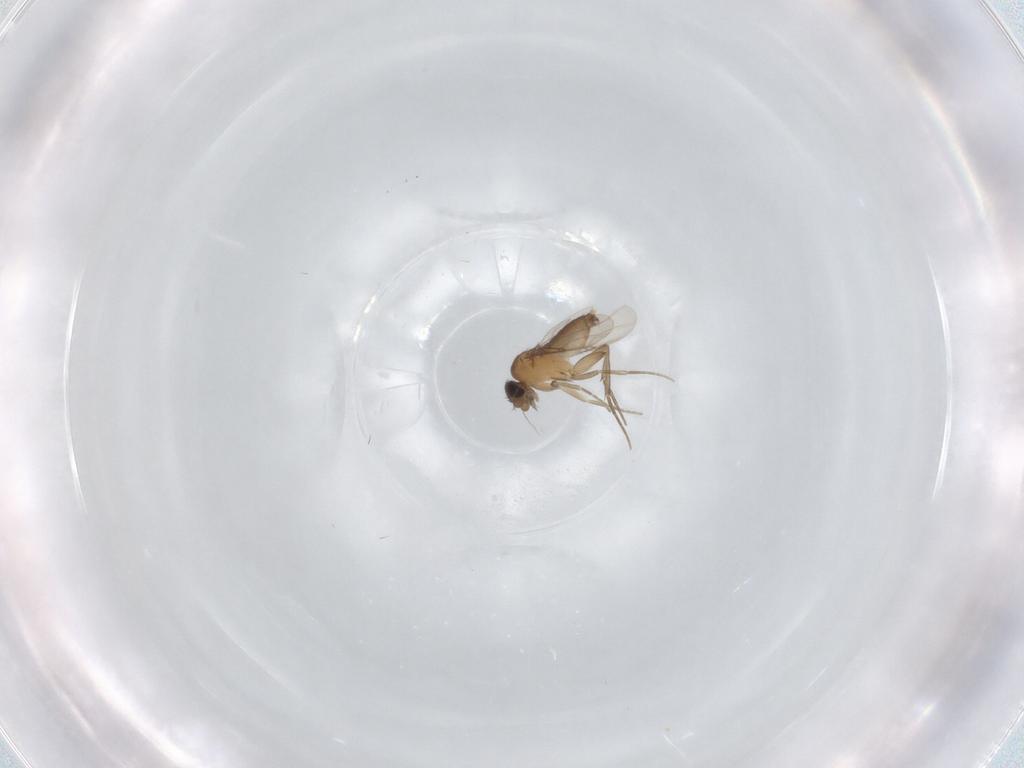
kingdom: Animalia
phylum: Arthropoda
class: Insecta
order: Diptera
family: Phoridae
